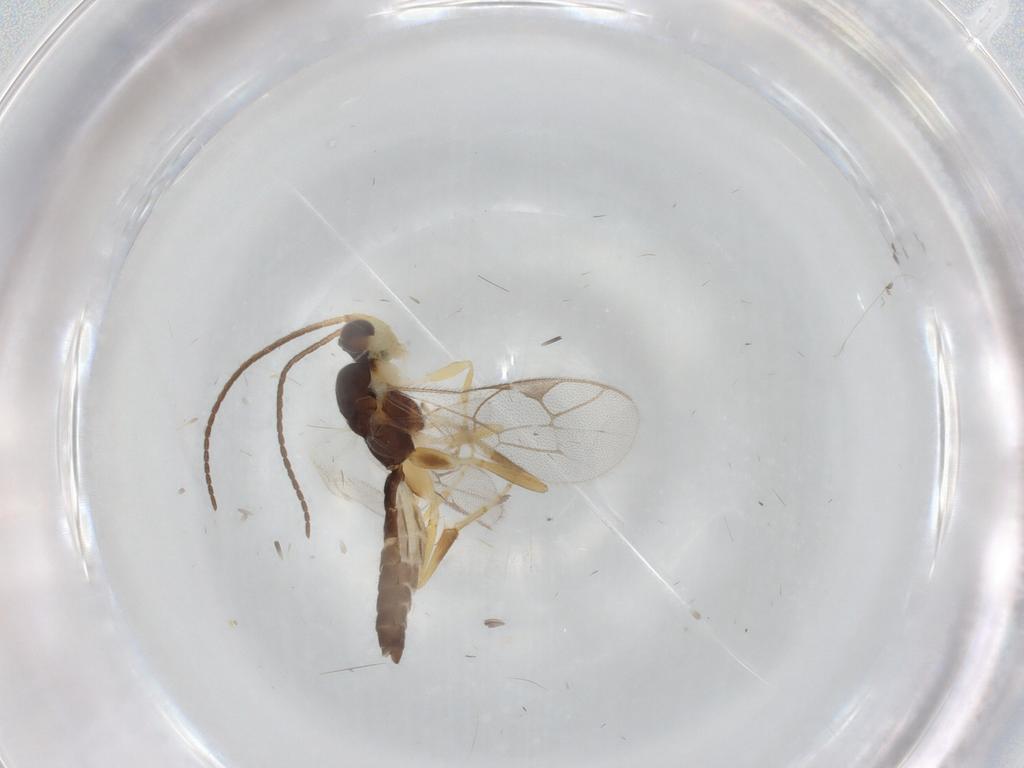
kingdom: Animalia
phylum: Arthropoda
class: Insecta
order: Hymenoptera
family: Ichneumonidae
